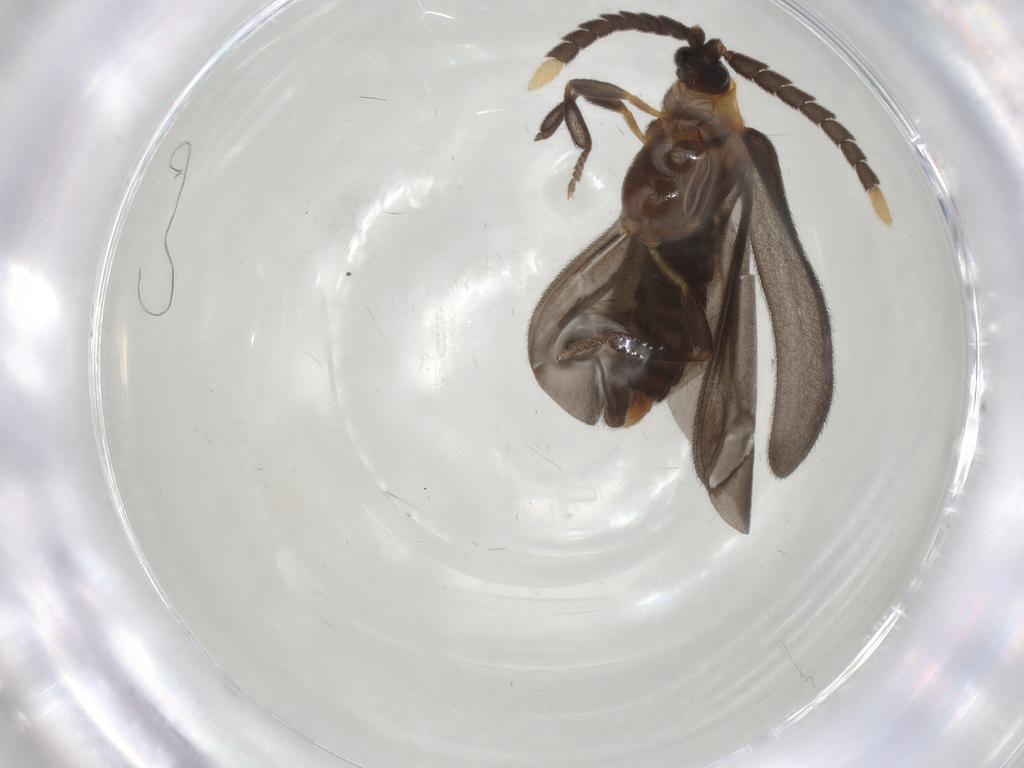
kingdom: Animalia
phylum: Arthropoda
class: Insecta
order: Coleoptera
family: Lycidae
